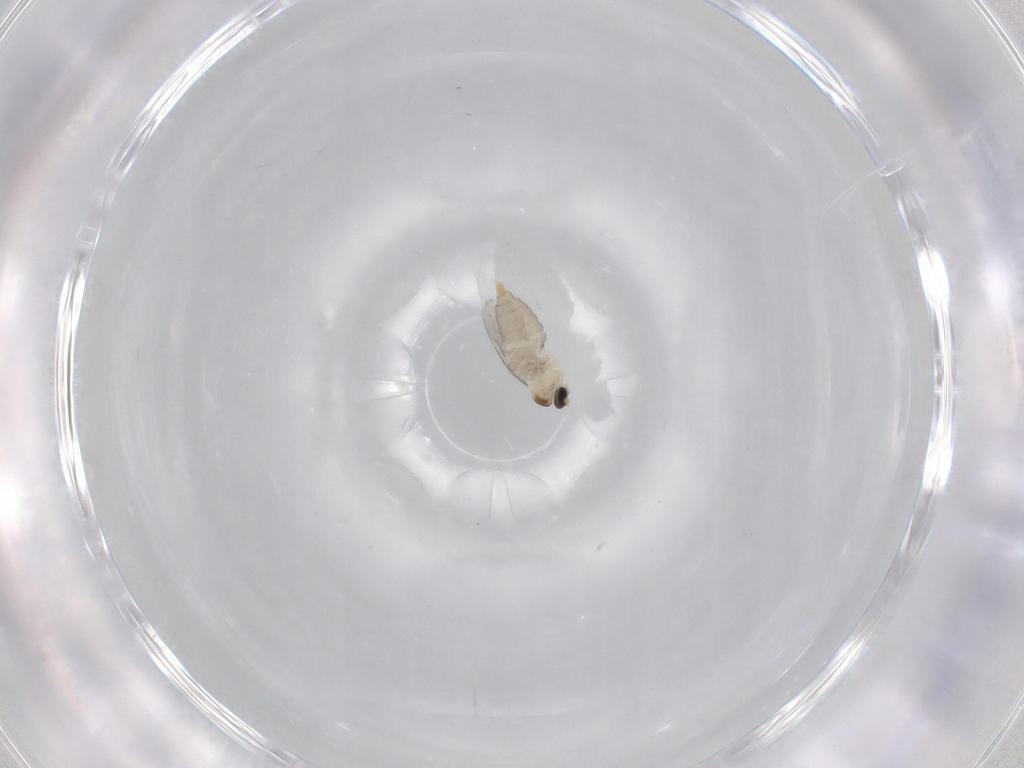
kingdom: Animalia
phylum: Arthropoda
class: Insecta
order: Diptera
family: Cecidomyiidae
